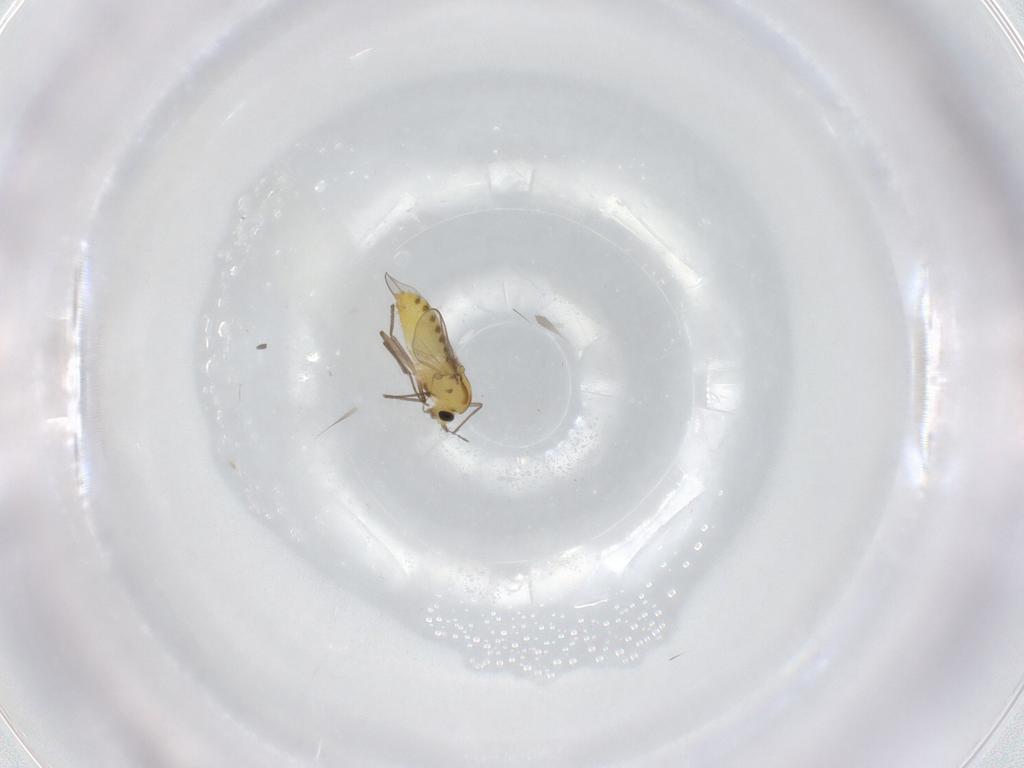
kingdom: Animalia
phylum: Arthropoda
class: Insecta
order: Diptera
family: Chironomidae
